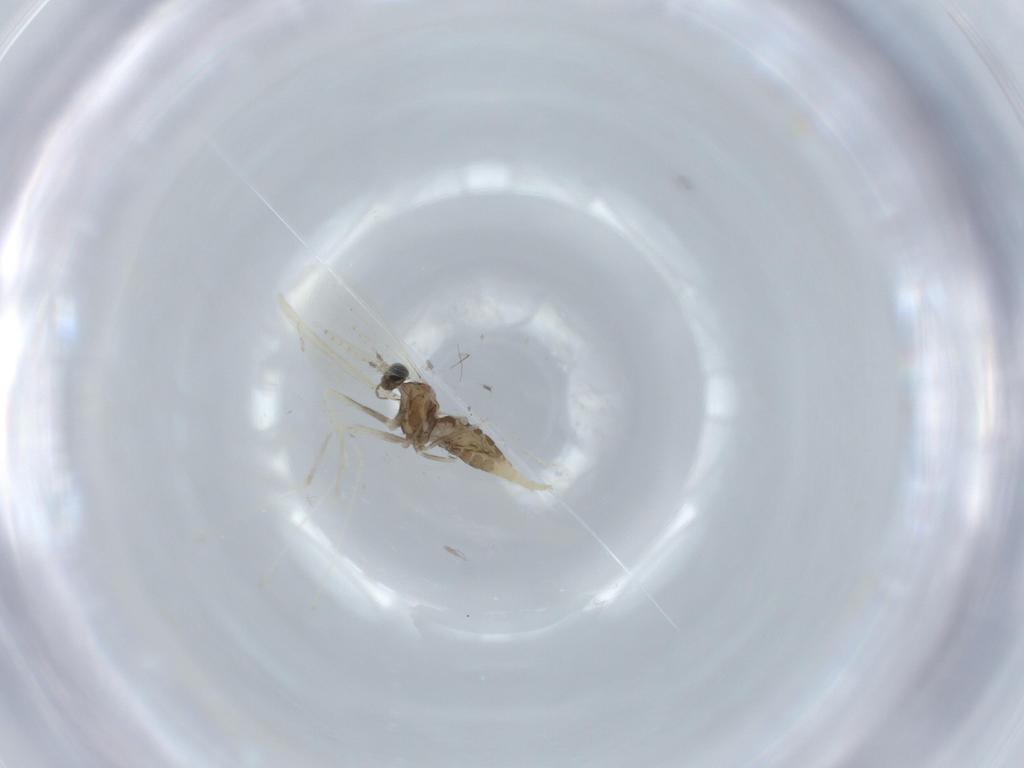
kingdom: Animalia
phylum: Arthropoda
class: Insecta
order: Diptera
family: Cecidomyiidae
